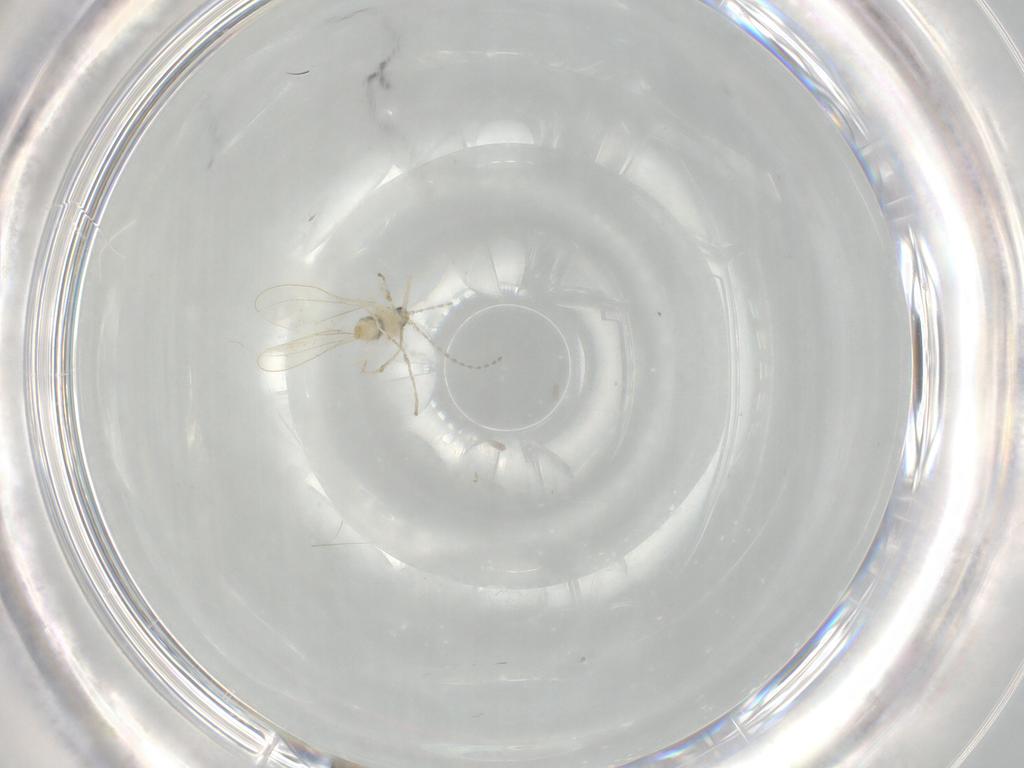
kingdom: Animalia
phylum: Arthropoda
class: Insecta
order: Diptera
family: Cecidomyiidae
